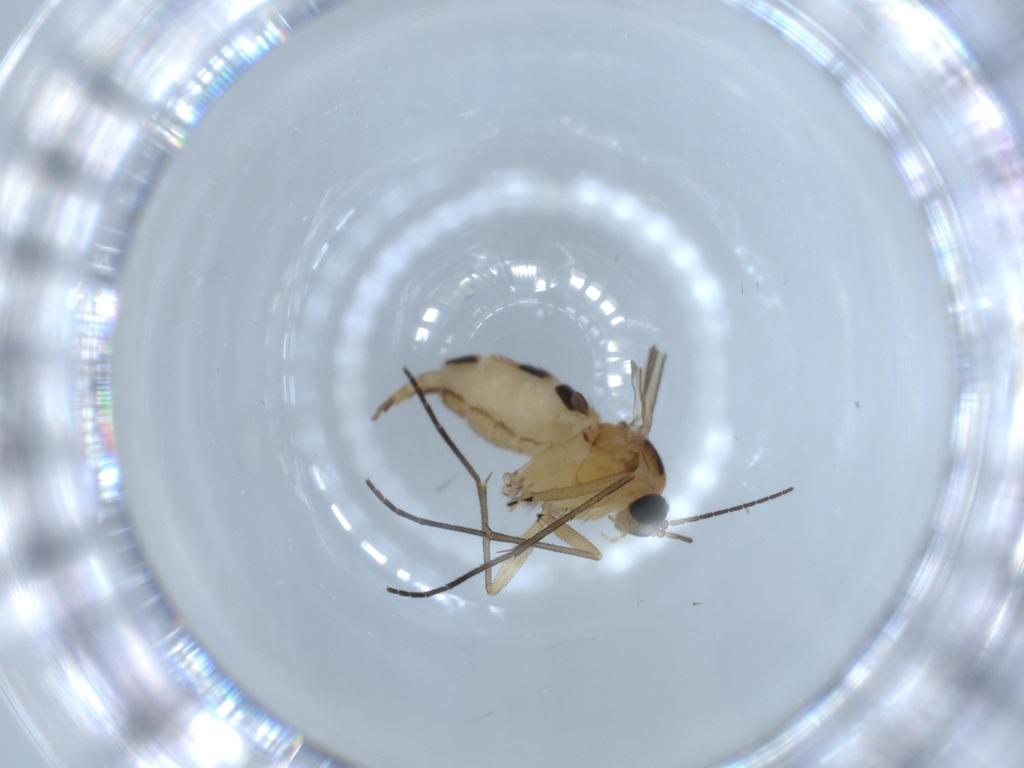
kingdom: Animalia
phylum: Arthropoda
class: Insecta
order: Diptera
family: Sciaridae
